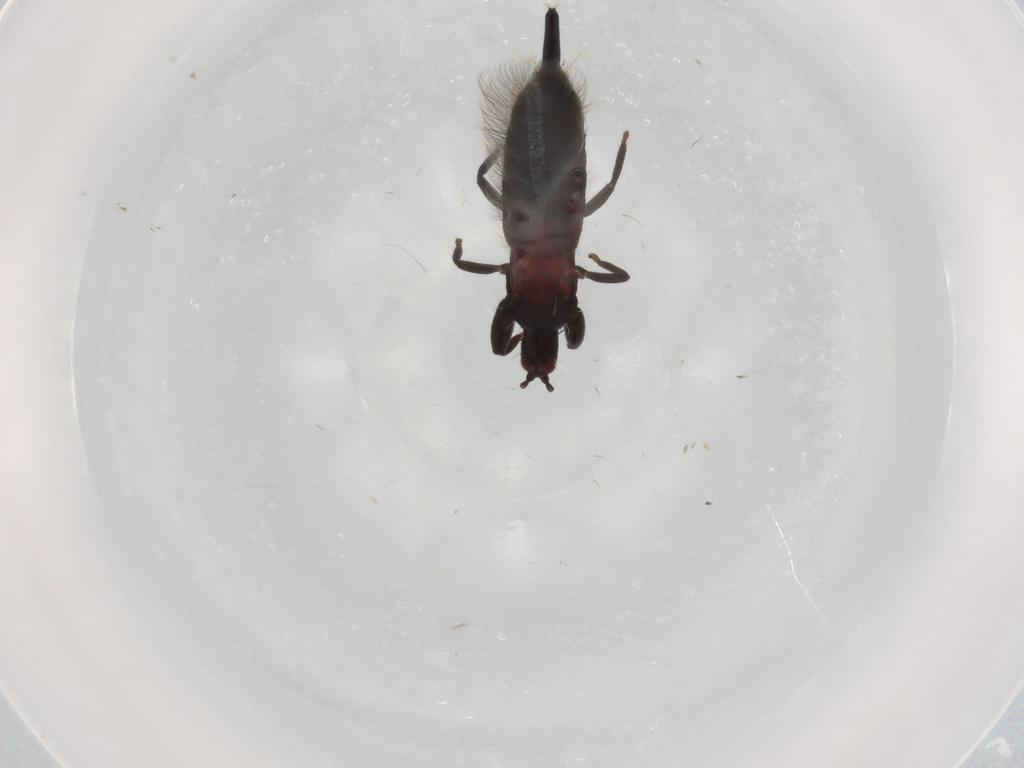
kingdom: Animalia
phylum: Arthropoda
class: Insecta
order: Thysanoptera
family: Phlaeothripidae
